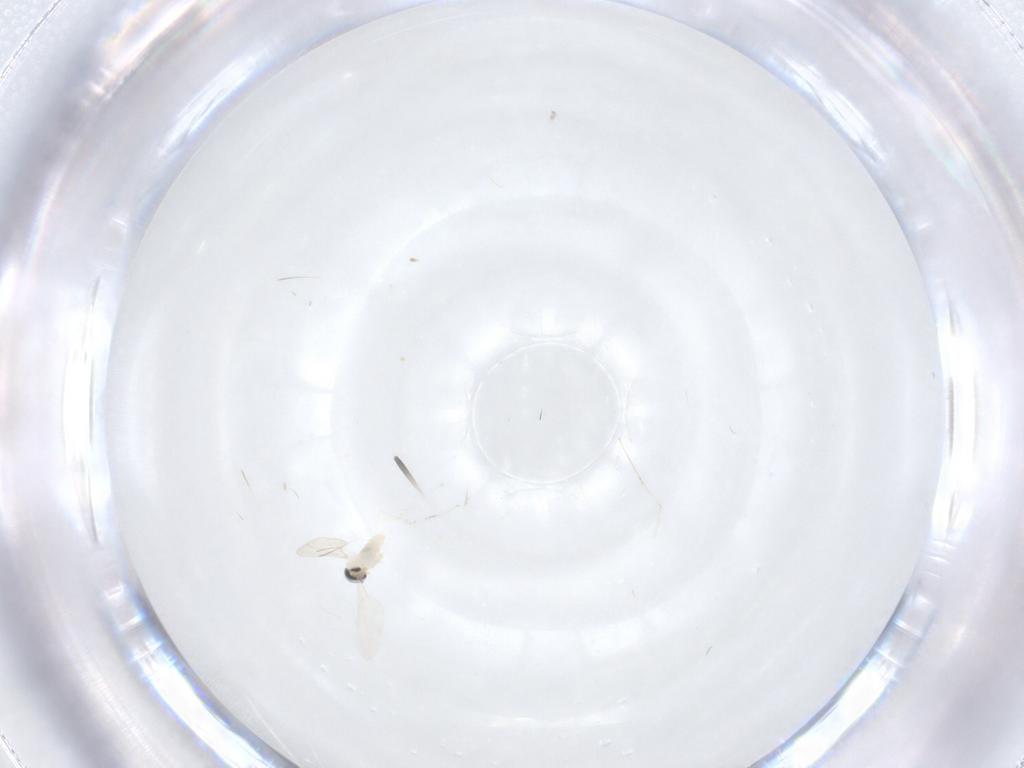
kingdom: Animalia
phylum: Arthropoda
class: Insecta
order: Diptera
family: Cecidomyiidae
